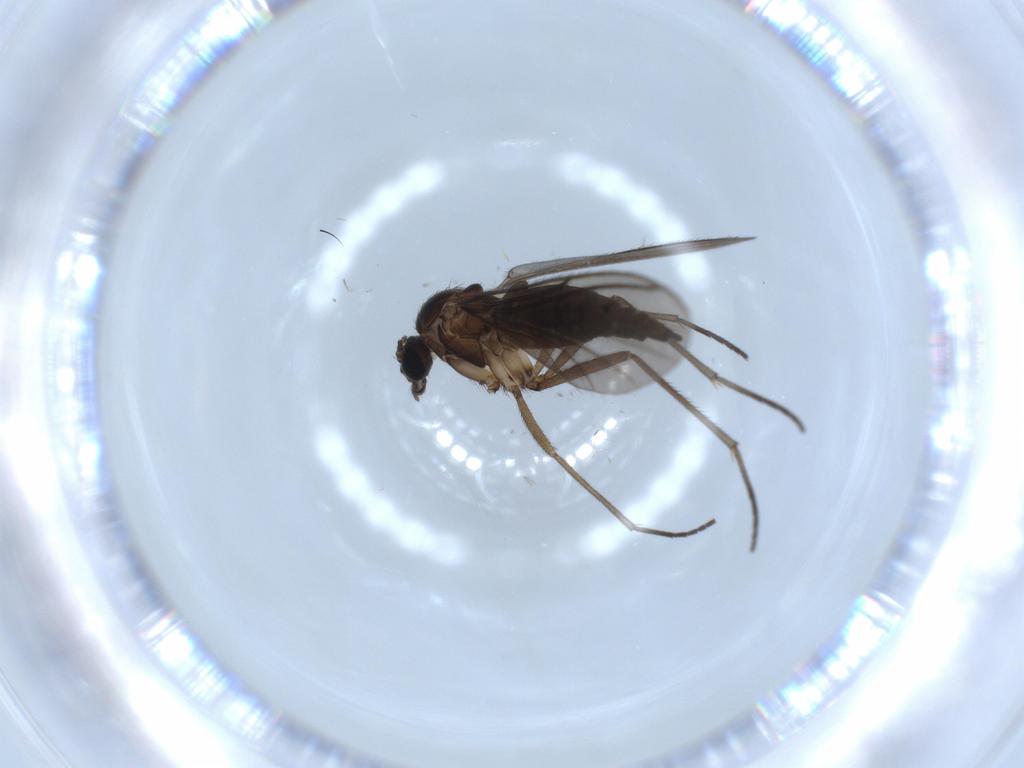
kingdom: Animalia
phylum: Arthropoda
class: Insecta
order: Diptera
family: Sciaridae
